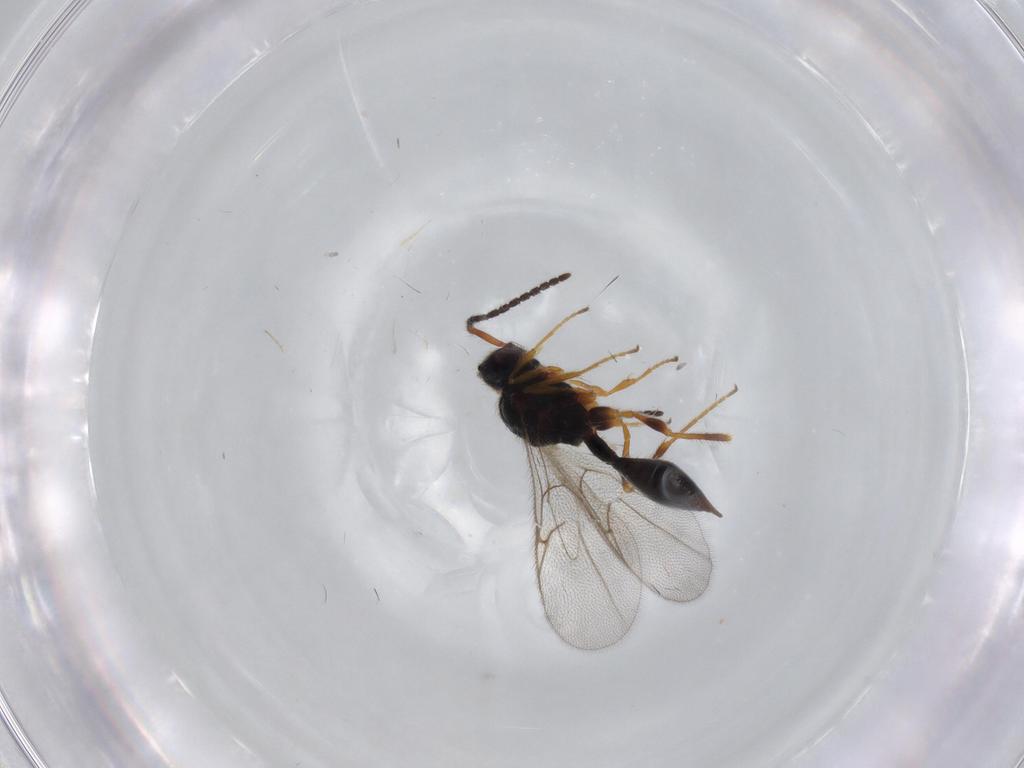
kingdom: Animalia
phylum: Arthropoda
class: Insecta
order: Hymenoptera
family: Diapriidae
